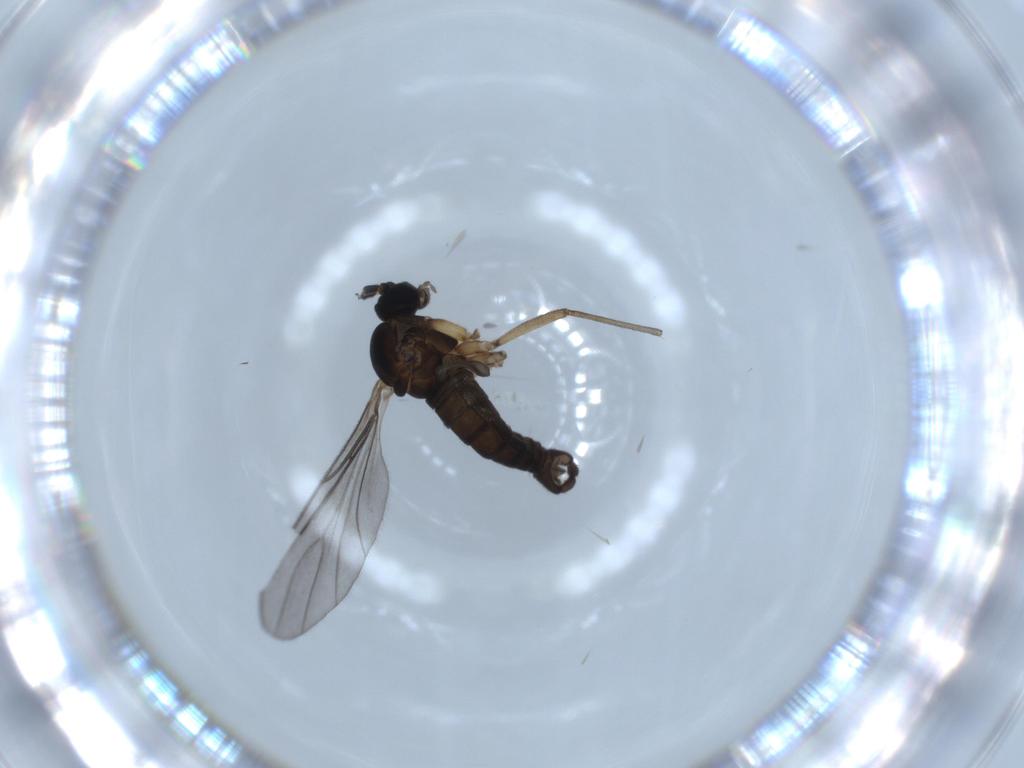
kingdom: Animalia
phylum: Arthropoda
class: Insecta
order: Diptera
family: Sciaridae
